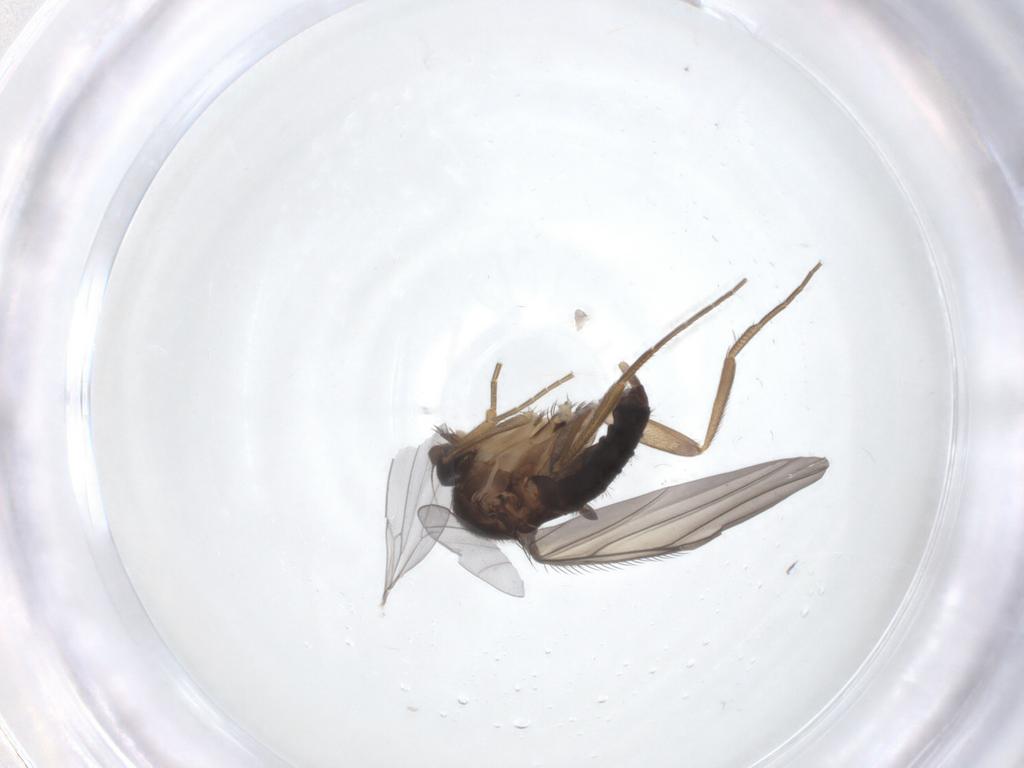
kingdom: Animalia
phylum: Arthropoda
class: Insecta
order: Diptera
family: Cecidomyiidae
